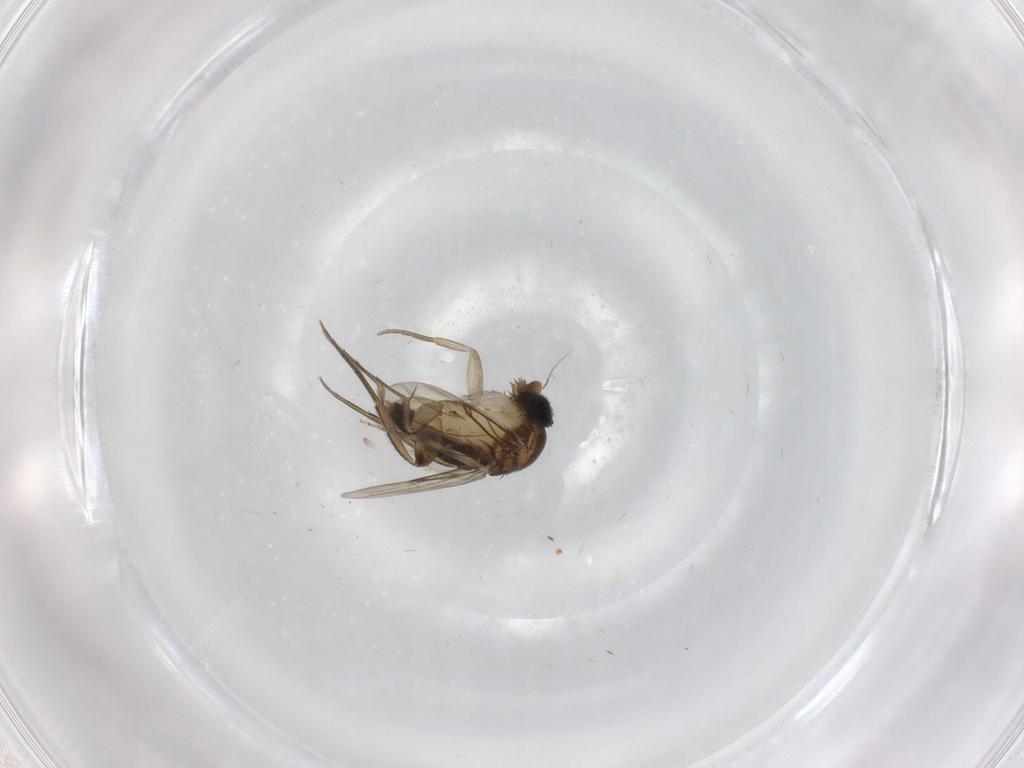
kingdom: Animalia
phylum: Arthropoda
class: Insecta
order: Diptera
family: Phoridae
